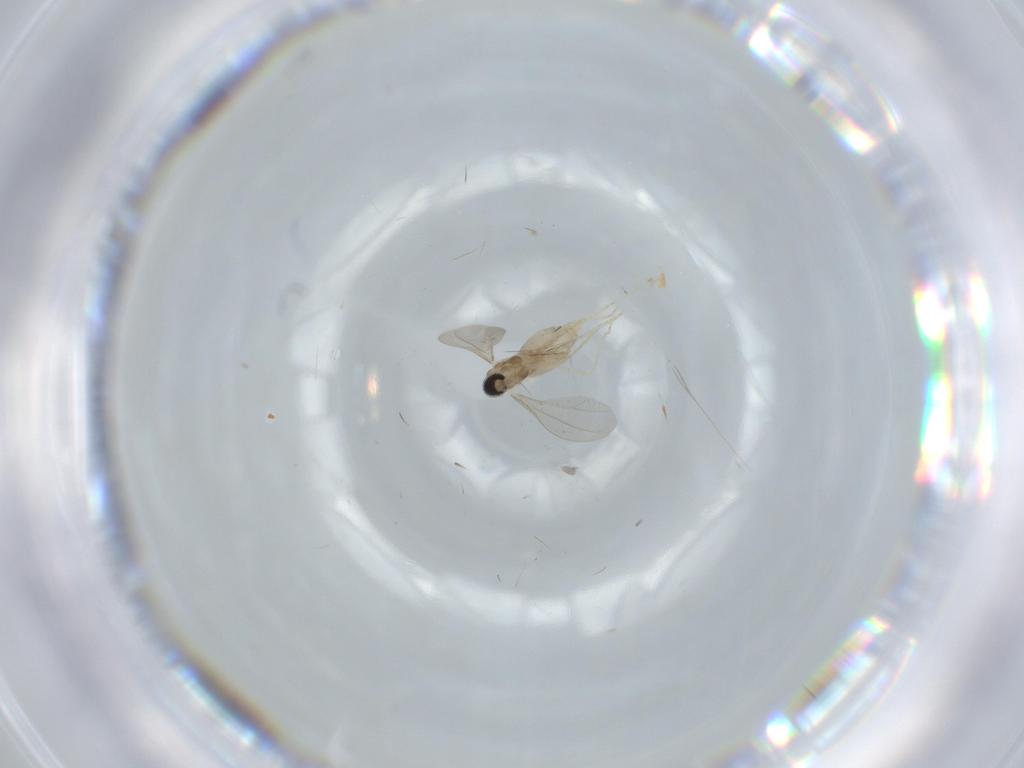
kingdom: Animalia
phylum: Arthropoda
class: Insecta
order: Diptera
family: Cecidomyiidae
